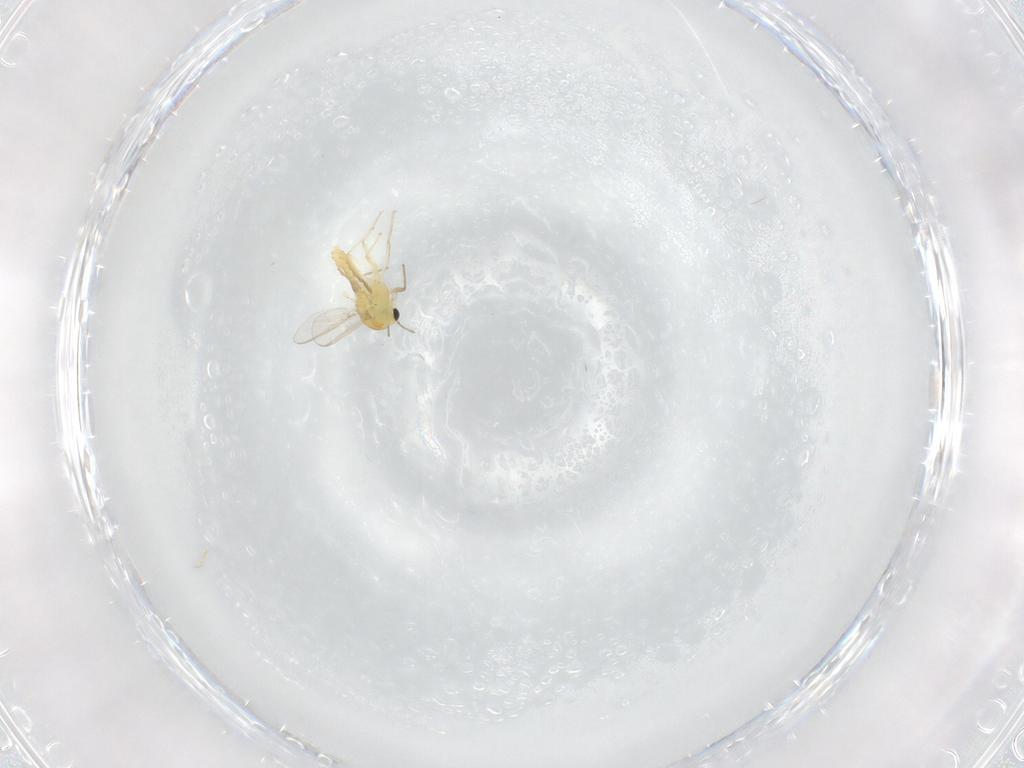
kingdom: Animalia
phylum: Arthropoda
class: Insecta
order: Diptera
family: Chironomidae
